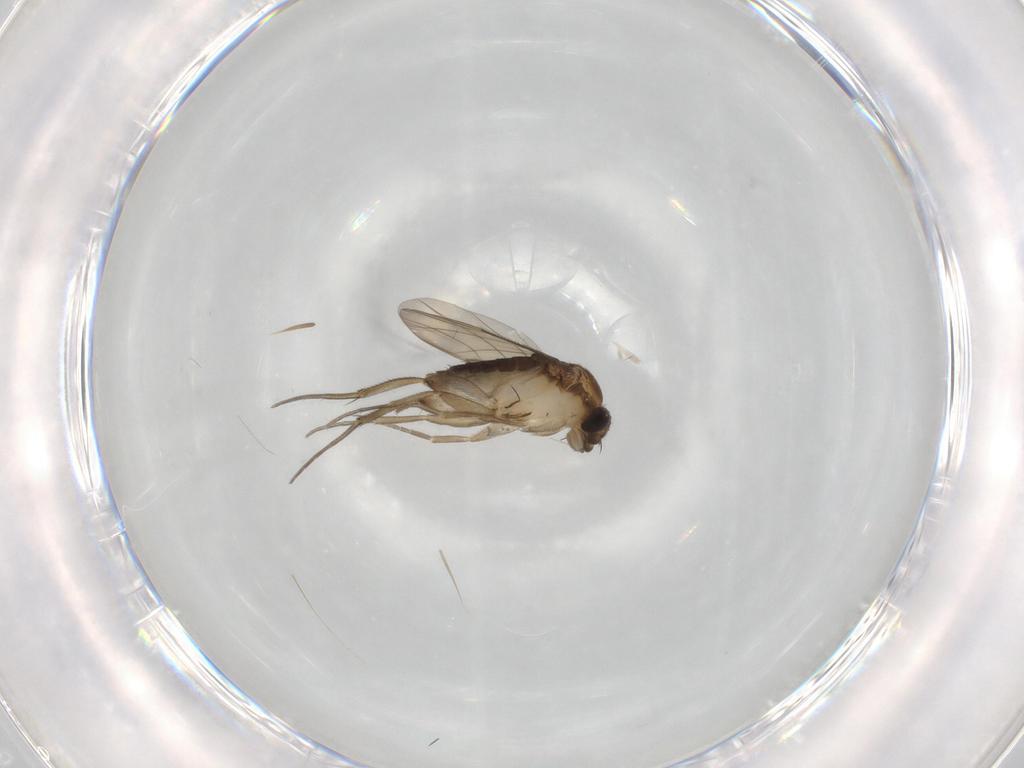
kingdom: Animalia
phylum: Arthropoda
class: Insecta
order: Diptera
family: Phoridae
